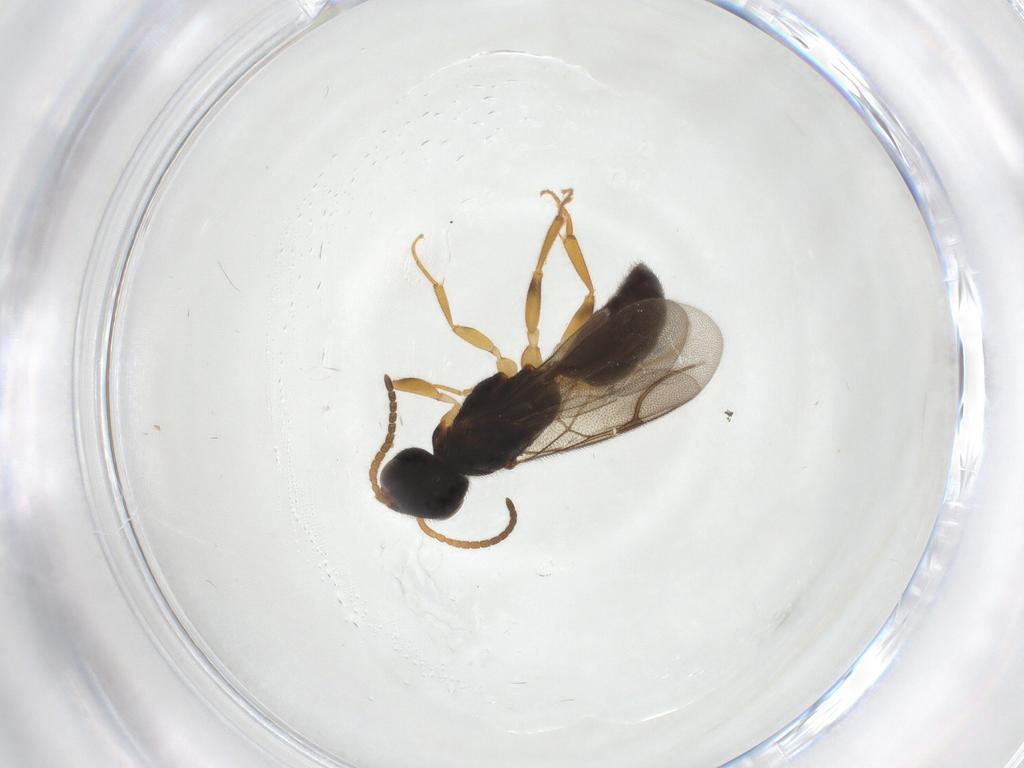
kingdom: Animalia
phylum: Arthropoda
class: Insecta
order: Hymenoptera
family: Bethylidae
